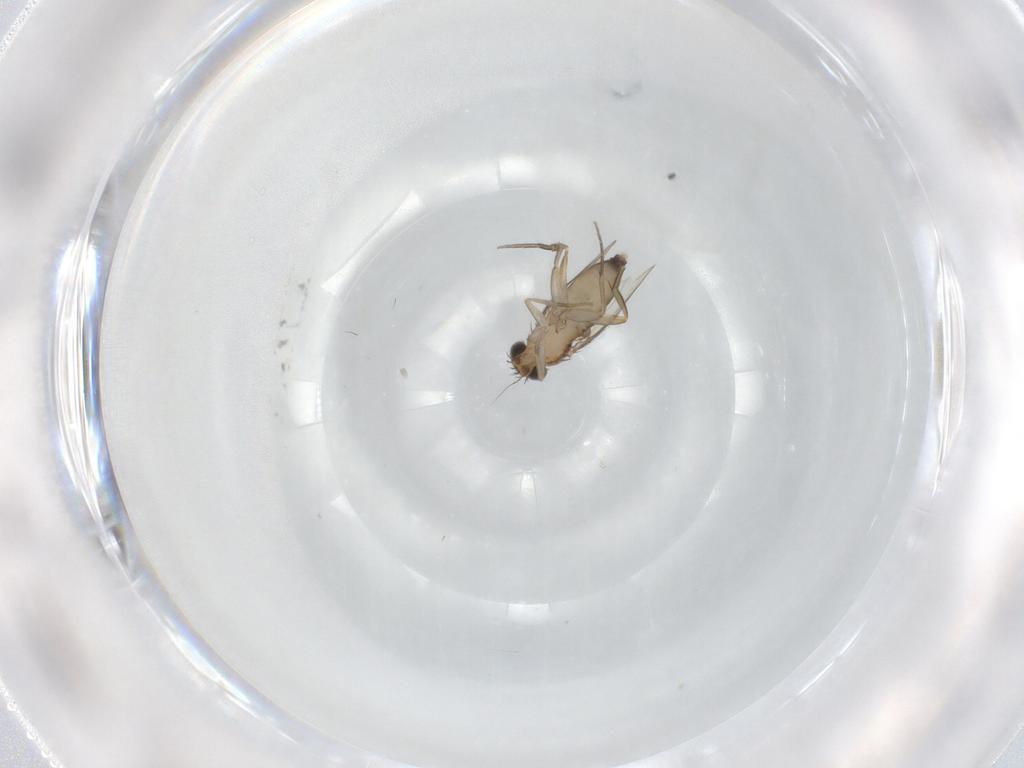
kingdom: Animalia
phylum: Arthropoda
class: Insecta
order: Diptera
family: Phoridae
